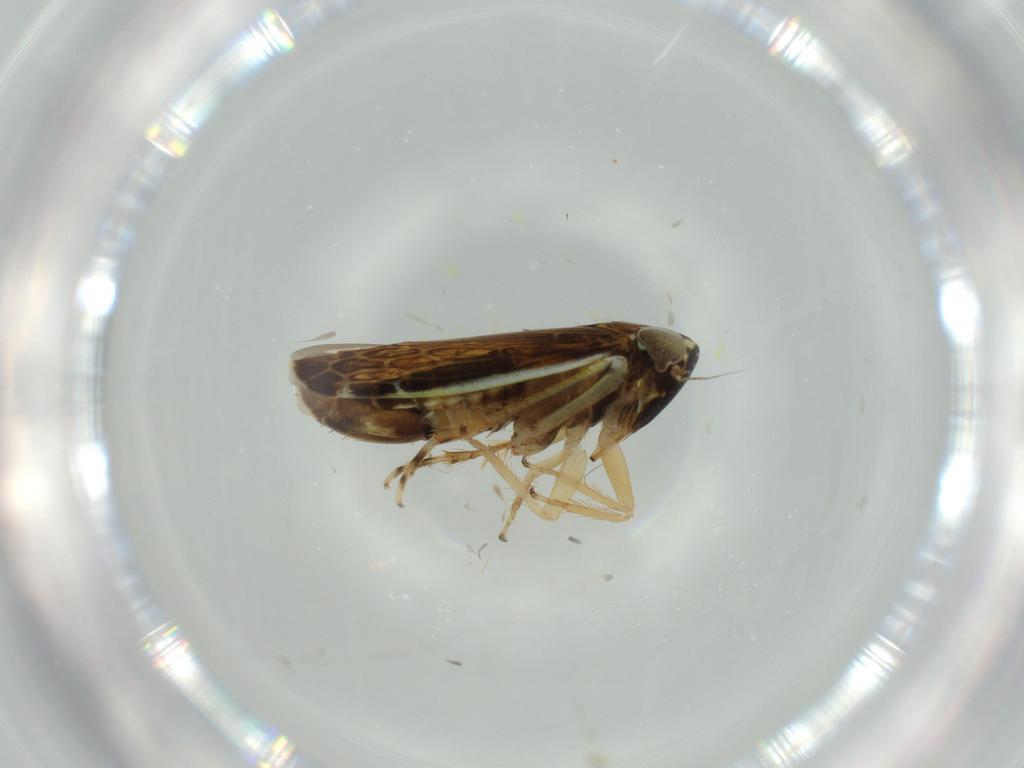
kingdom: Animalia
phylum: Arthropoda
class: Insecta
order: Hemiptera
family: Cicadellidae
